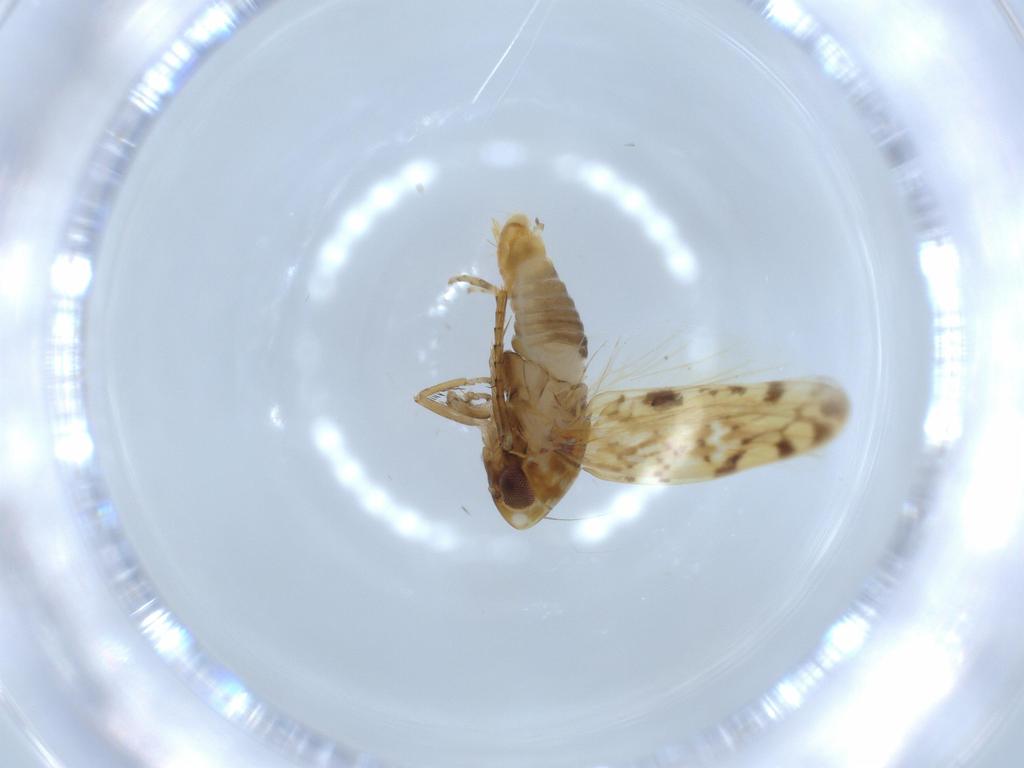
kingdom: Animalia
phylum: Arthropoda
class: Insecta
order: Hemiptera
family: Cicadellidae
